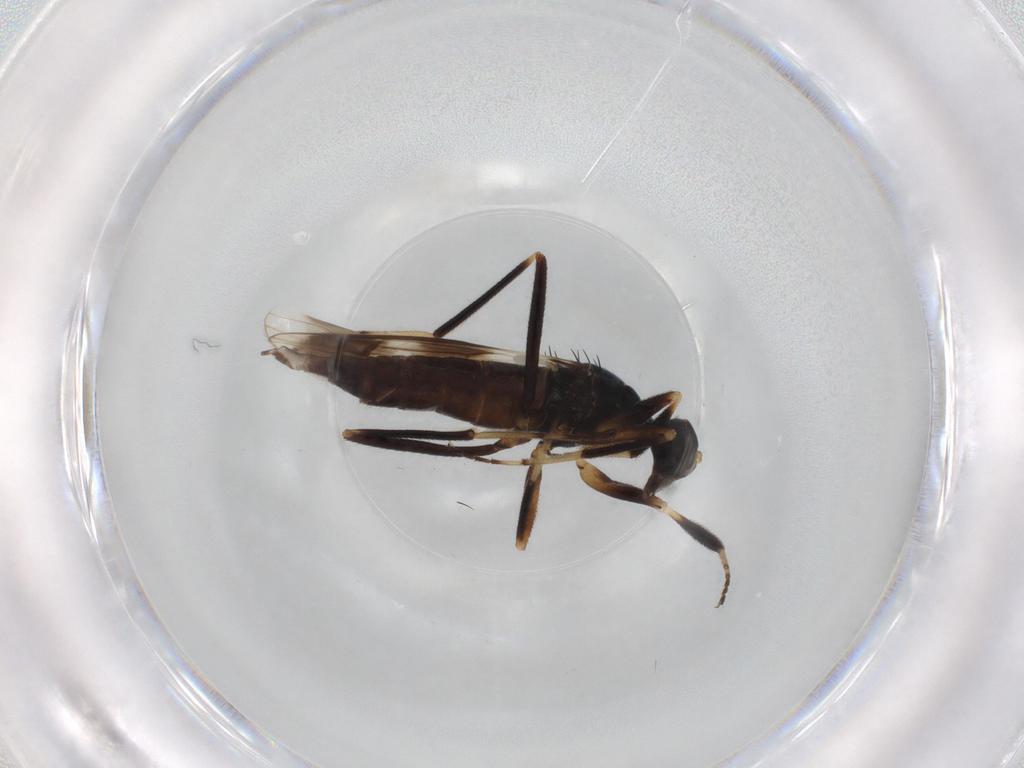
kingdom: Animalia
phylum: Arthropoda
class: Insecta
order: Diptera
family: Hybotidae
